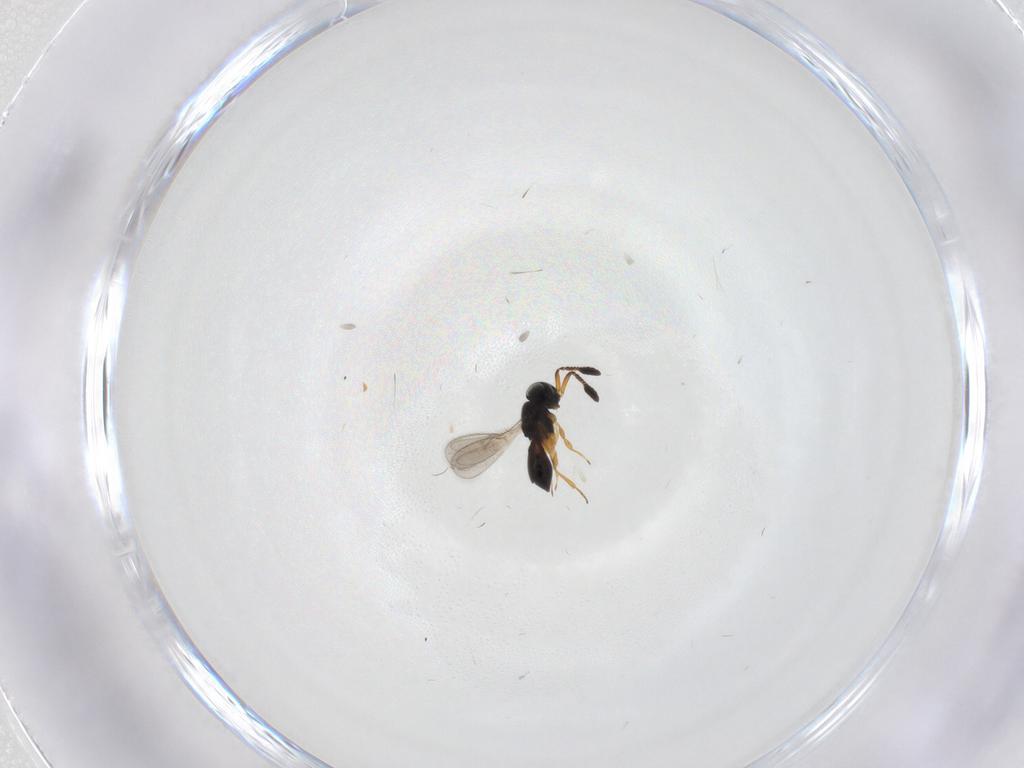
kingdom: Animalia
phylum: Arthropoda
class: Insecta
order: Hymenoptera
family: Scelionidae
